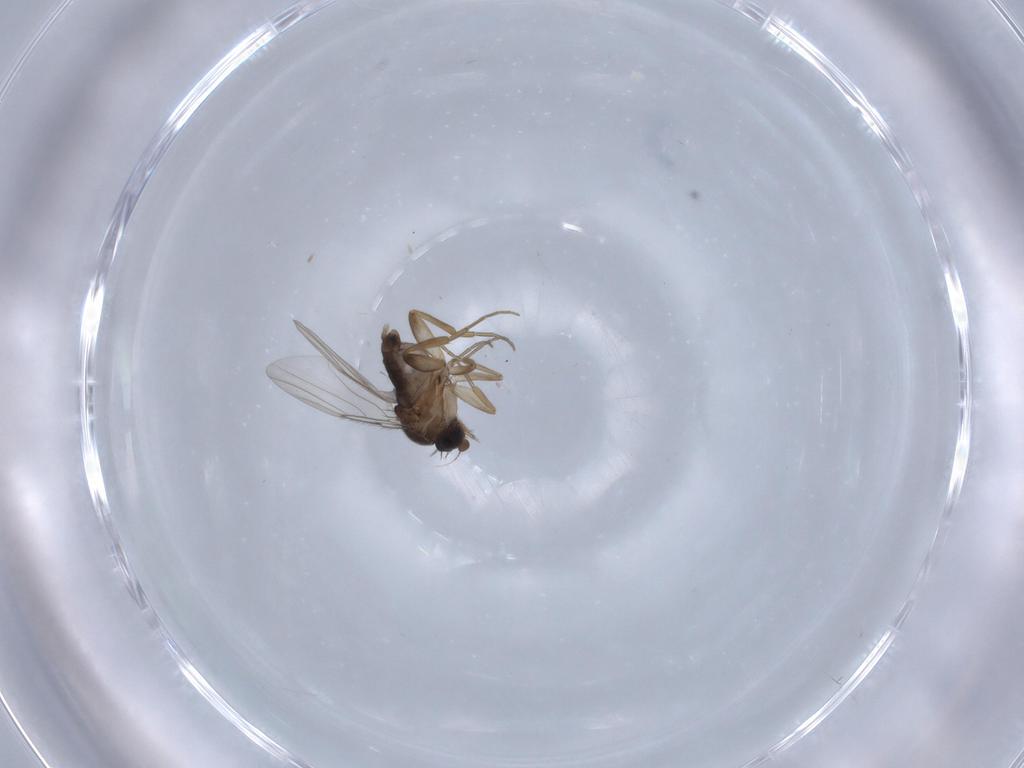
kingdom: Animalia
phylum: Arthropoda
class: Insecta
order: Diptera
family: Phoridae
